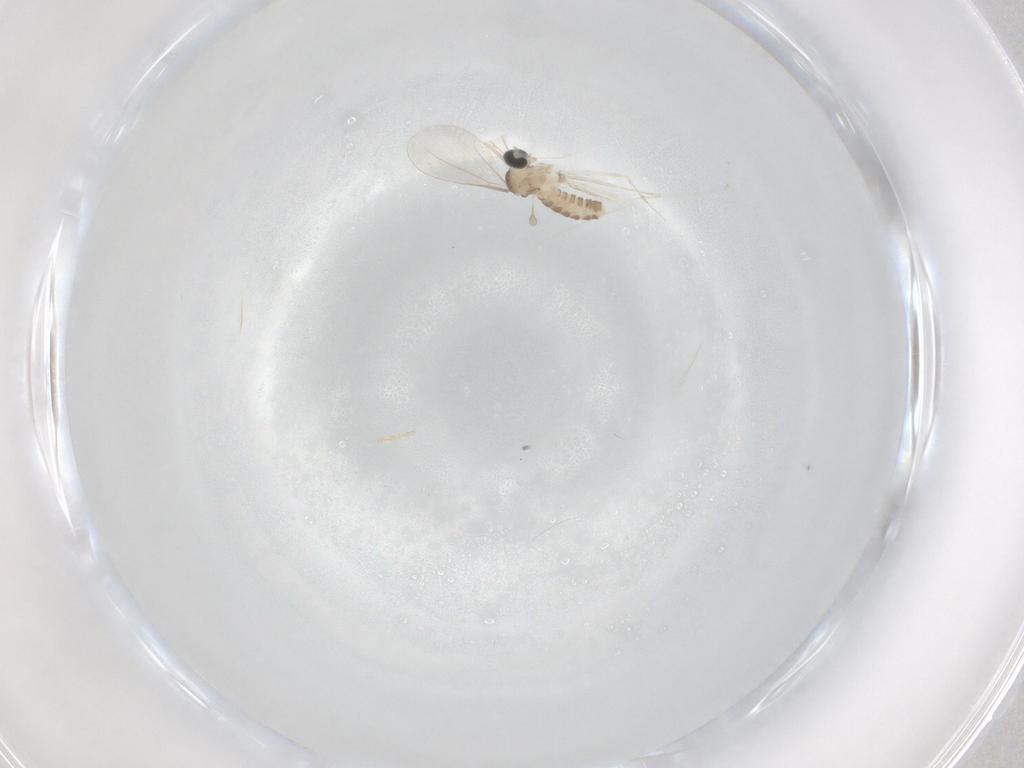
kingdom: Animalia
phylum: Arthropoda
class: Insecta
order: Diptera
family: Cecidomyiidae
